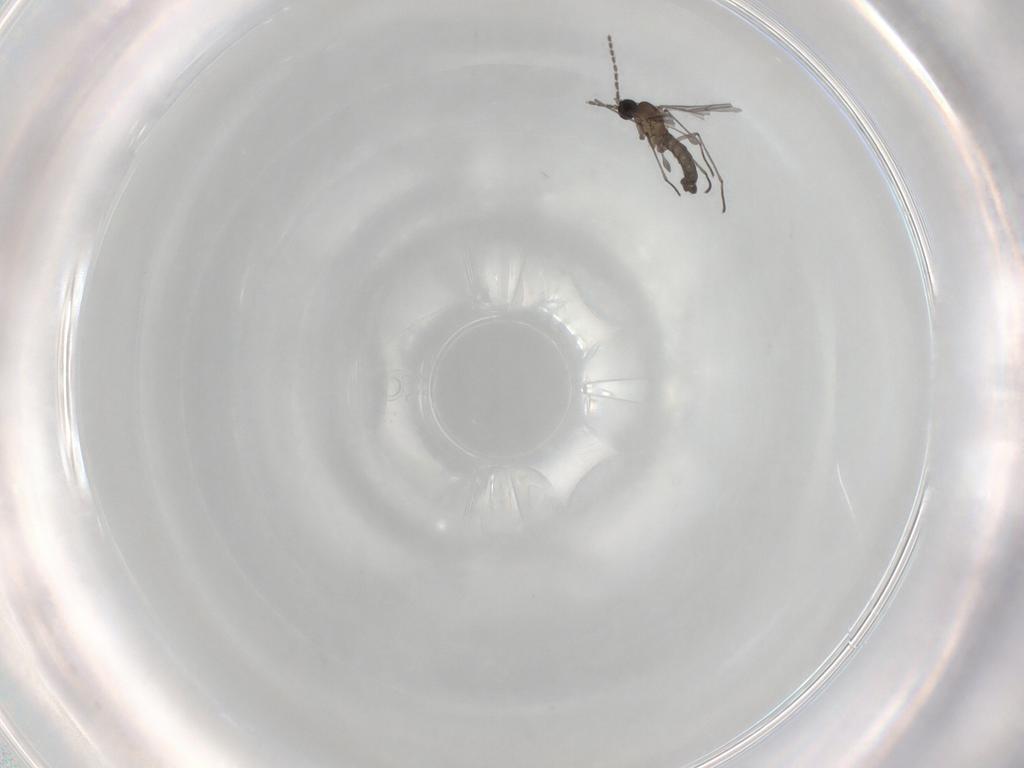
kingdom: Animalia
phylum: Arthropoda
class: Insecta
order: Diptera
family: Sciaridae
